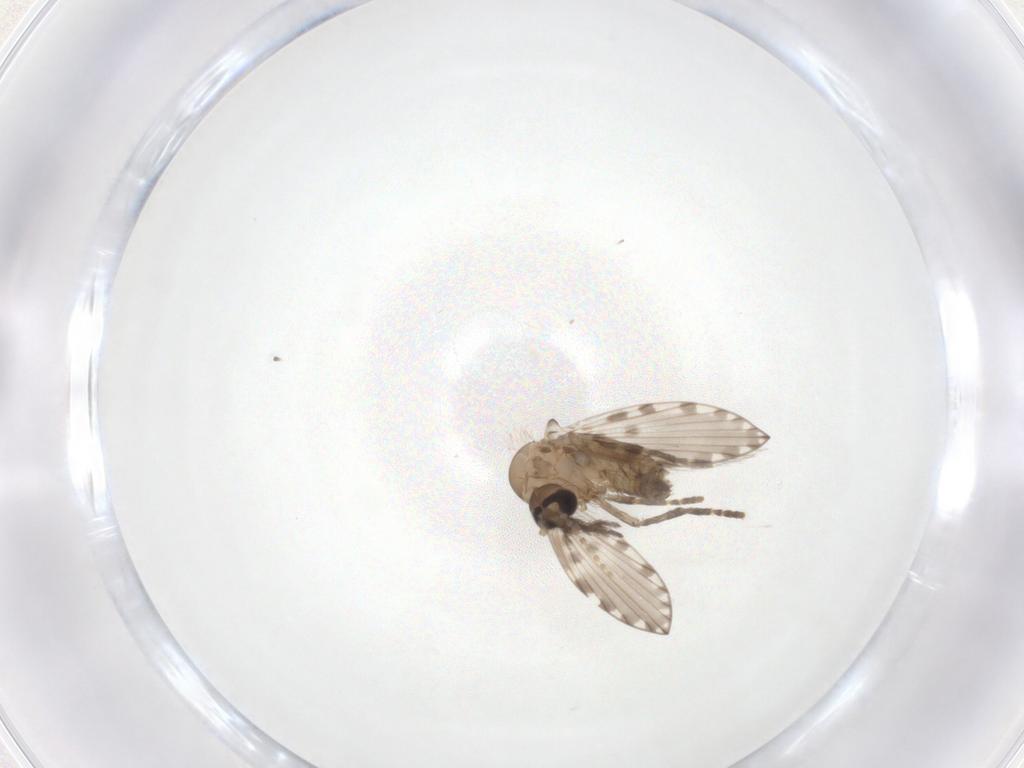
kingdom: Animalia
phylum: Arthropoda
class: Insecta
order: Diptera
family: Psychodidae
